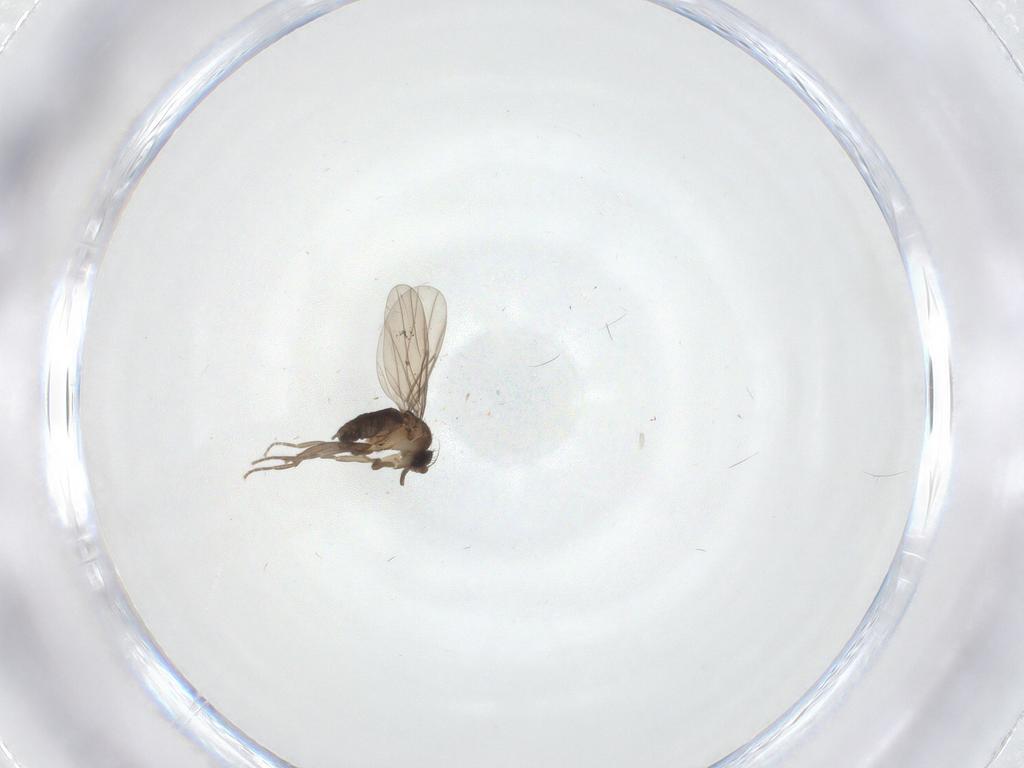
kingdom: Animalia
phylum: Arthropoda
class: Insecta
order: Diptera
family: Phoridae
